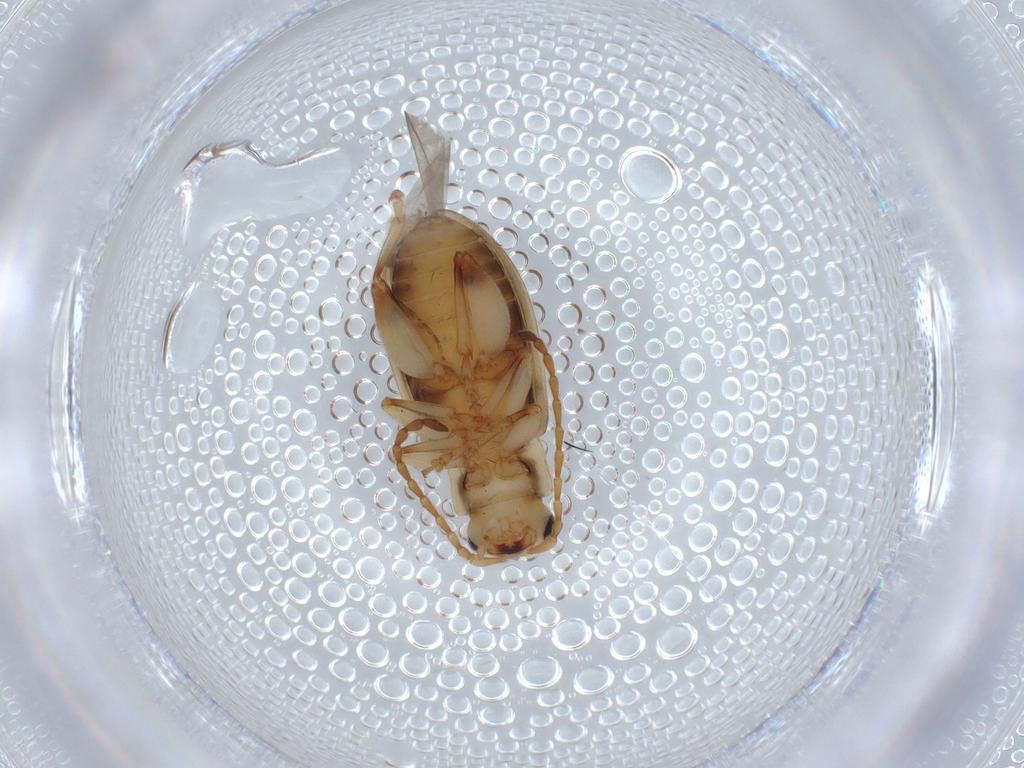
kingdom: Animalia
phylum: Arthropoda
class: Insecta
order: Coleoptera
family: Chrysomelidae
